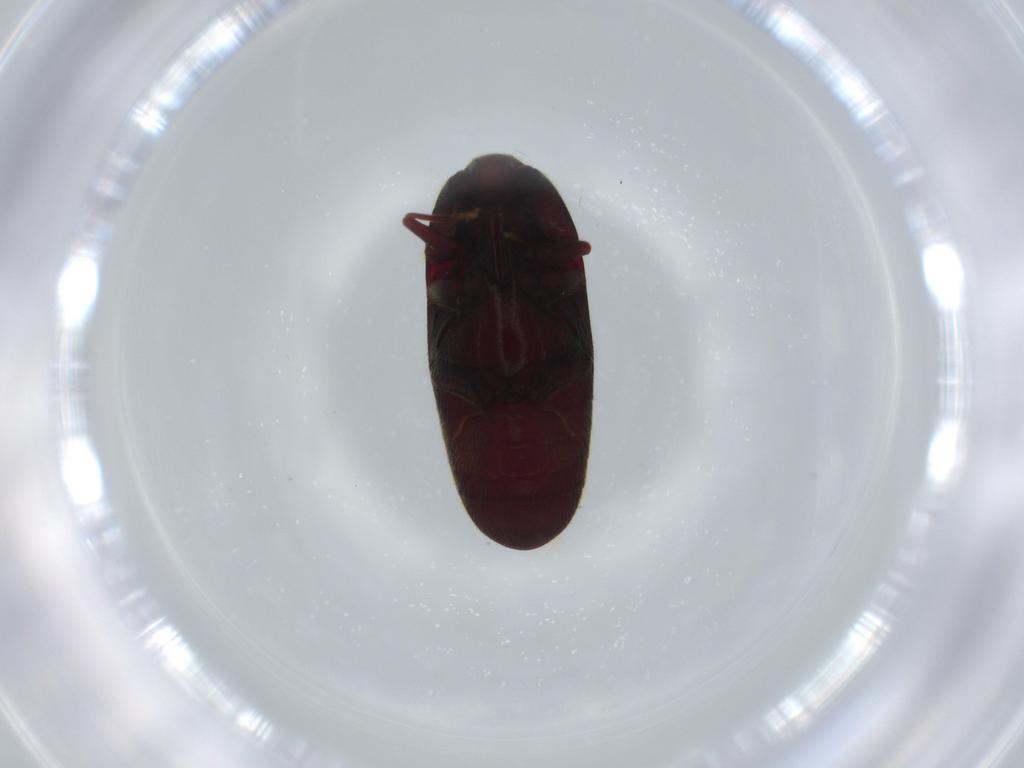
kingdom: Animalia
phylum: Arthropoda
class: Insecta
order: Coleoptera
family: Throscidae
